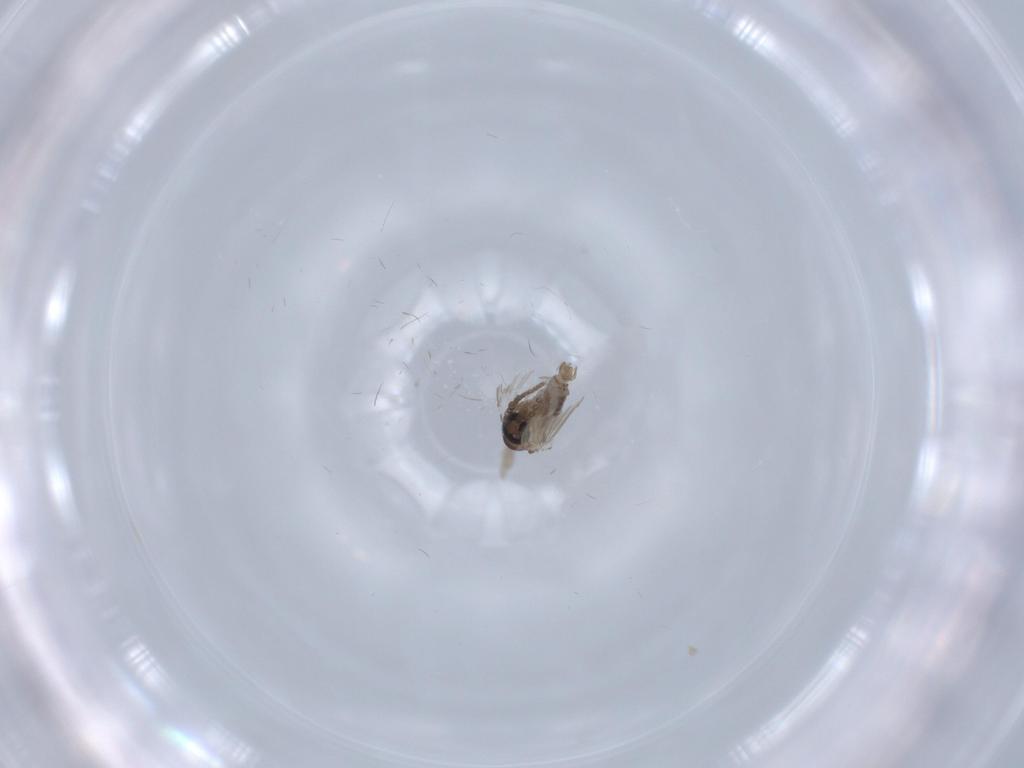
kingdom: Animalia
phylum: Arthropoda
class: Insecta
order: Diptera
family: Psychodidae
